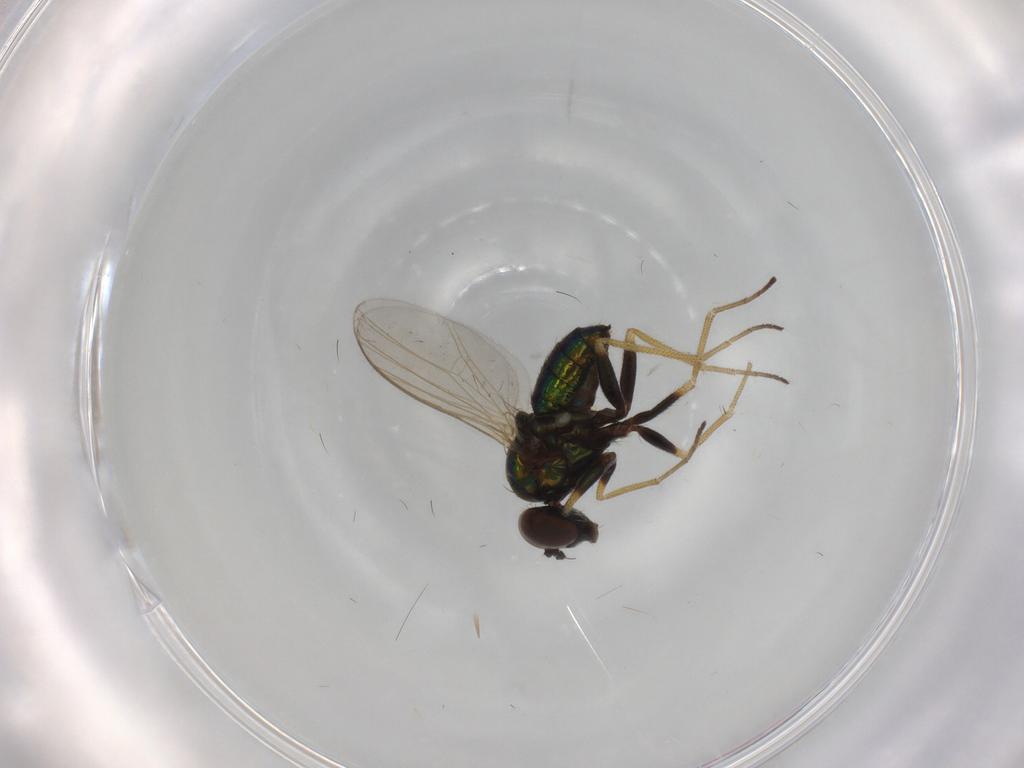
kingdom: Animalia
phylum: Arthropoda
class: Insecta
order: Diptera
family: Dolichopodidae
